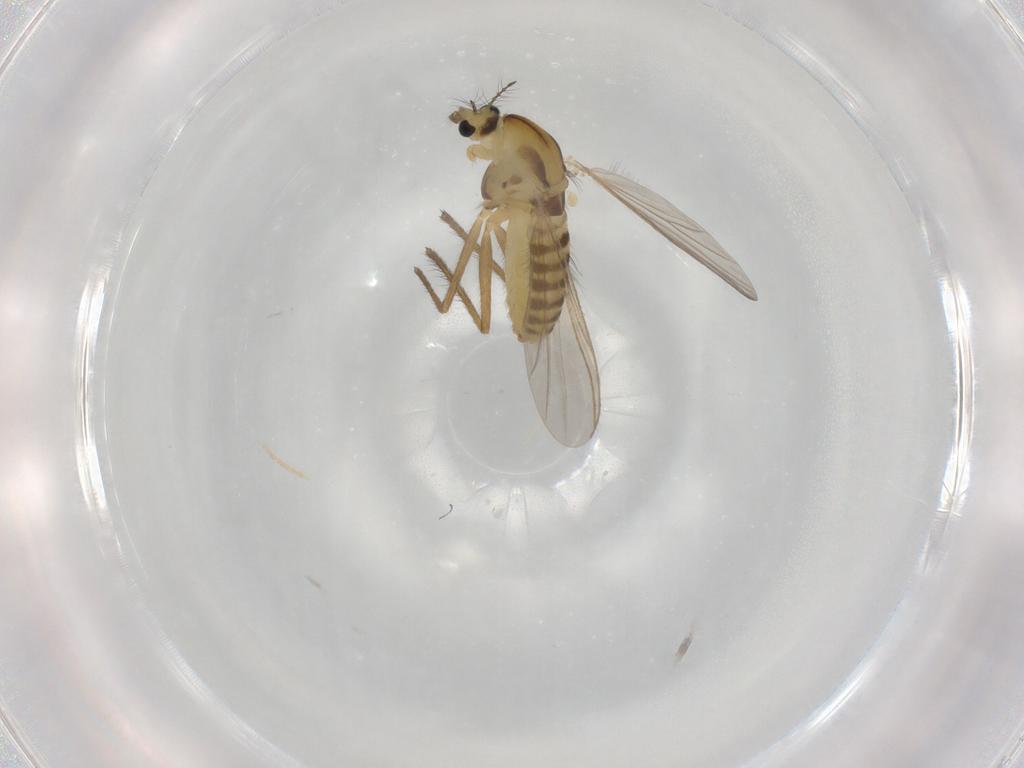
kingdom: Animalia
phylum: Arthropoda
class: Insecta
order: Diptera
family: Chironomidae
